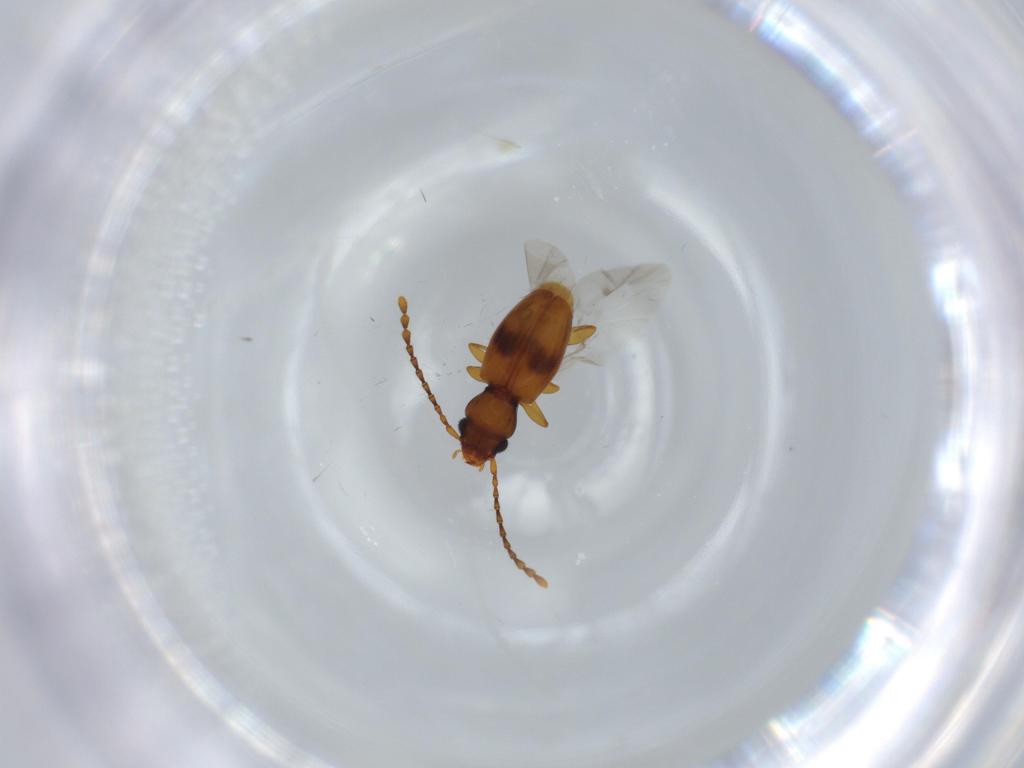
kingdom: Animalia
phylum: Arthropoda
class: Insecta
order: Coleoptera
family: Laemophloeidae
